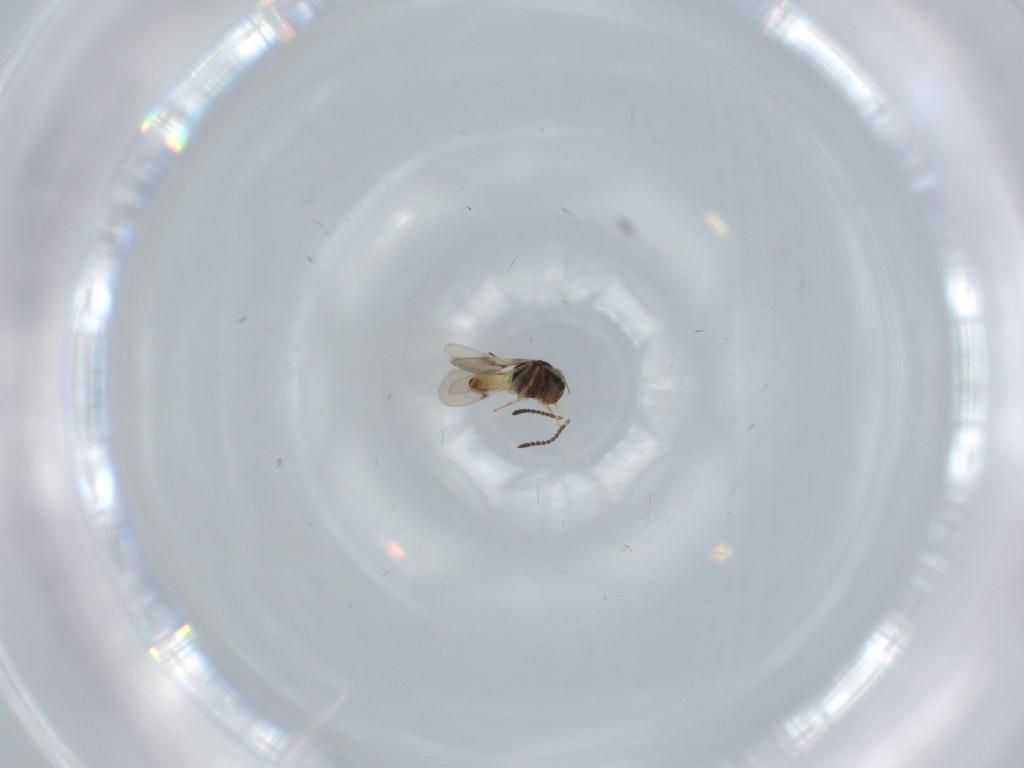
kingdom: Animalia
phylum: Arthropoda
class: Insecta
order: Hymenoptera
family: Scelionidae
